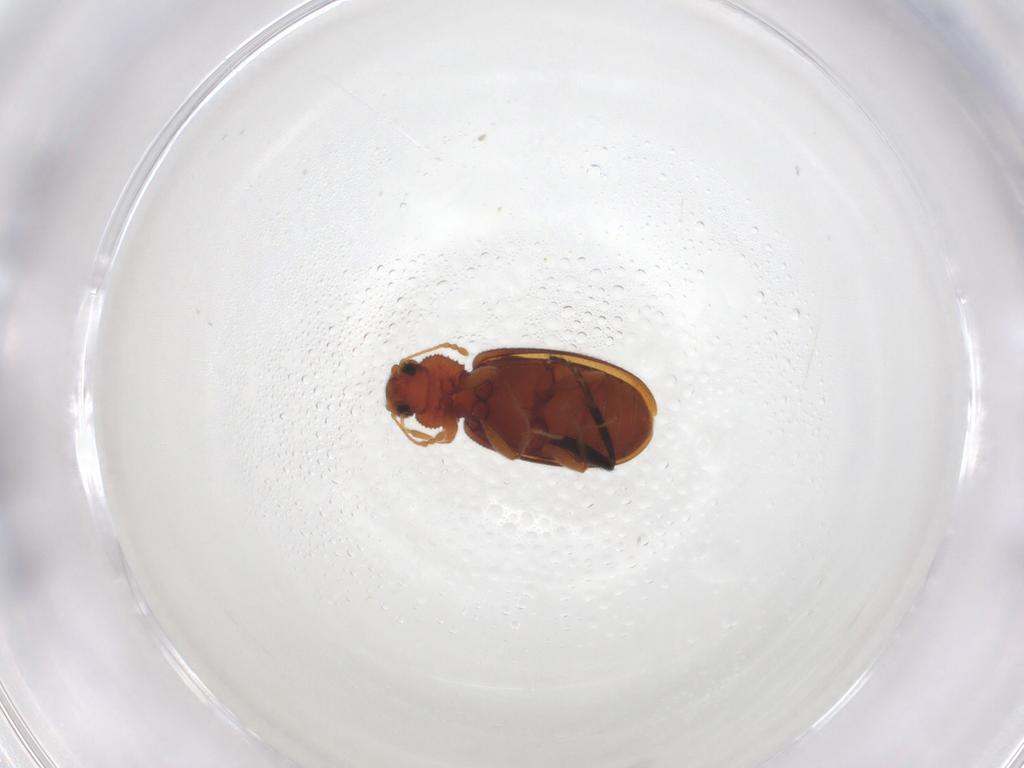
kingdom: Animalia
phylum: Arthropoda
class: Insecta
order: Coleoptera
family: Latridiidae
